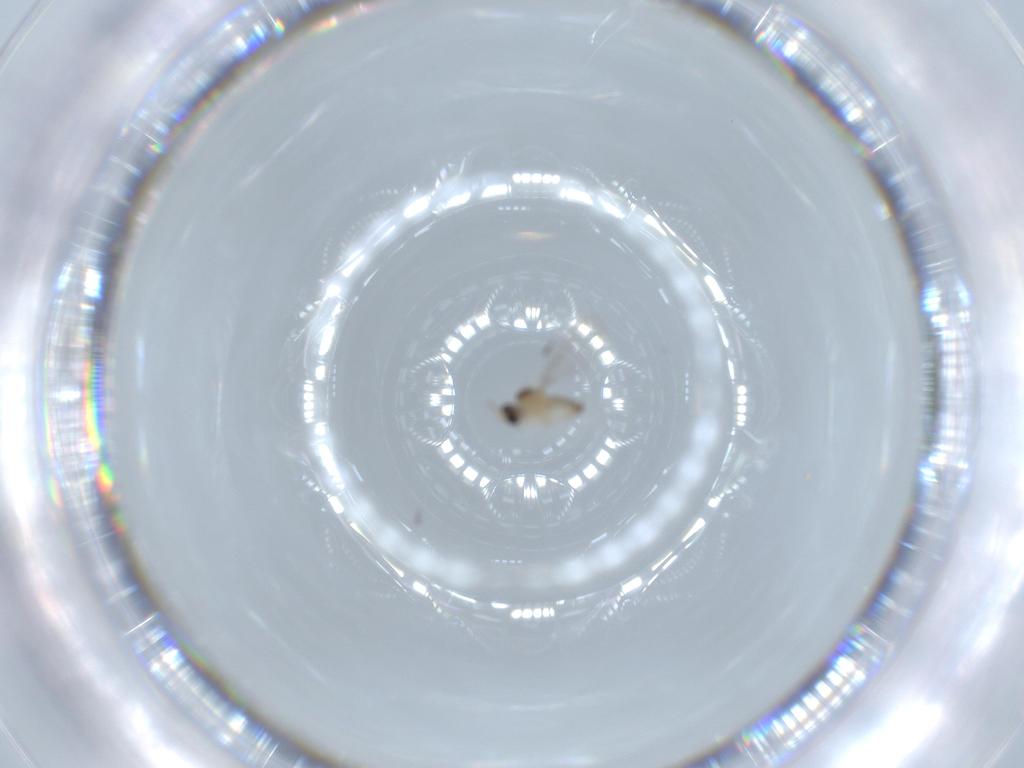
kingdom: Animalia
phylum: Arthropoda
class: Insecta
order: Diptera
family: Cecidomyiidae
